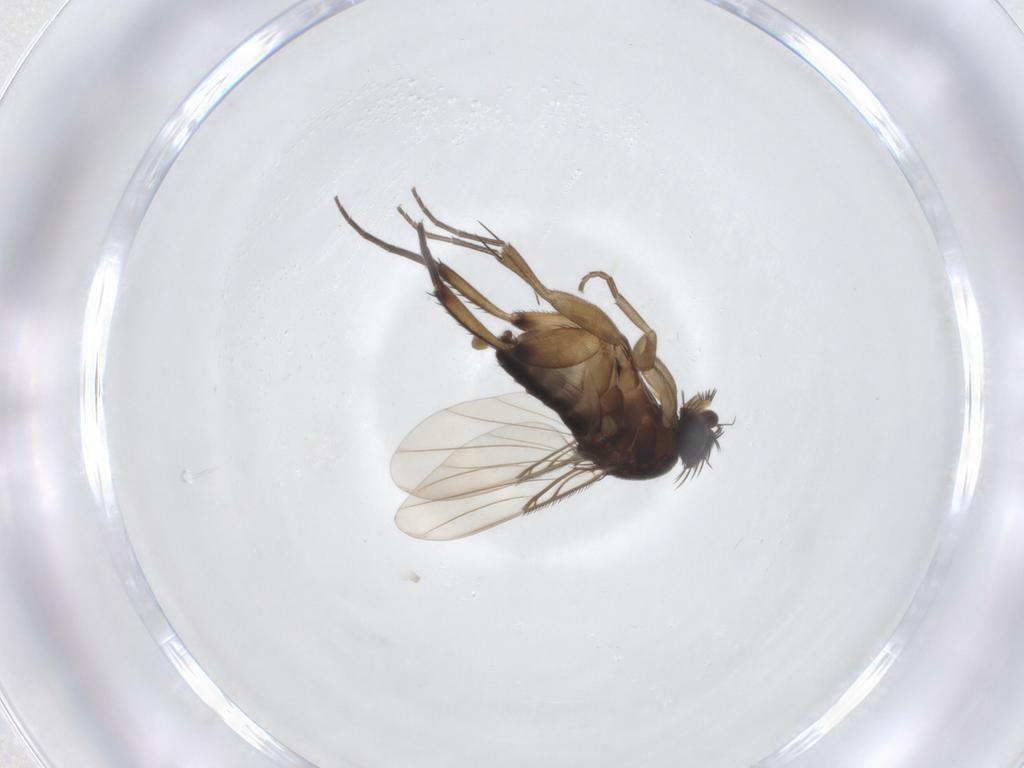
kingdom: Animalia
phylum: Arthropoda
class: Insecta
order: Diptera
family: Phoridae
